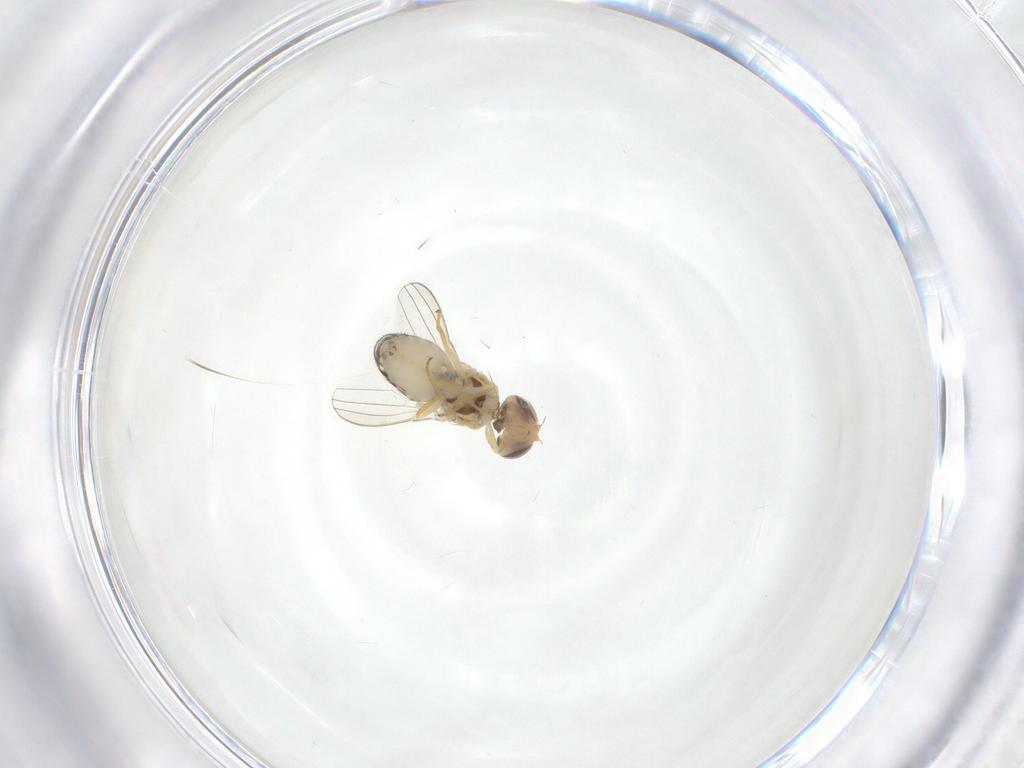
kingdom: Animalia
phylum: Arthropoda
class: Insecta
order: Diptera
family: Chyromyidae
